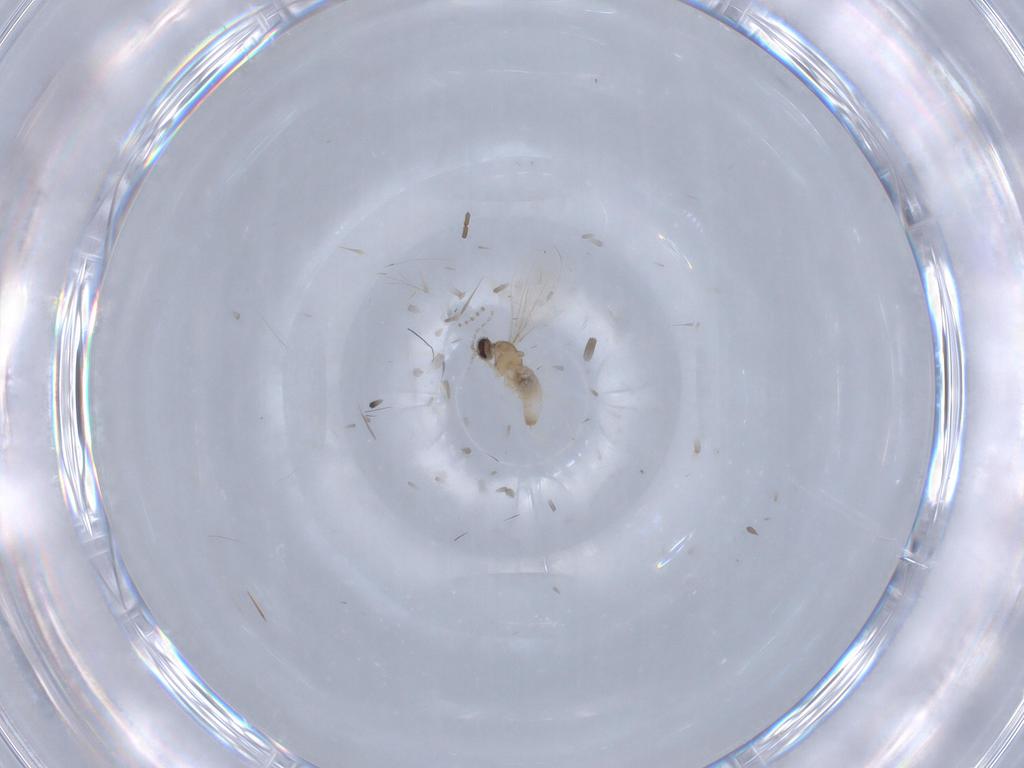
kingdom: Animalia
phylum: Arthropoda
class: Insecta
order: Diptera
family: Cecidomyiidae
